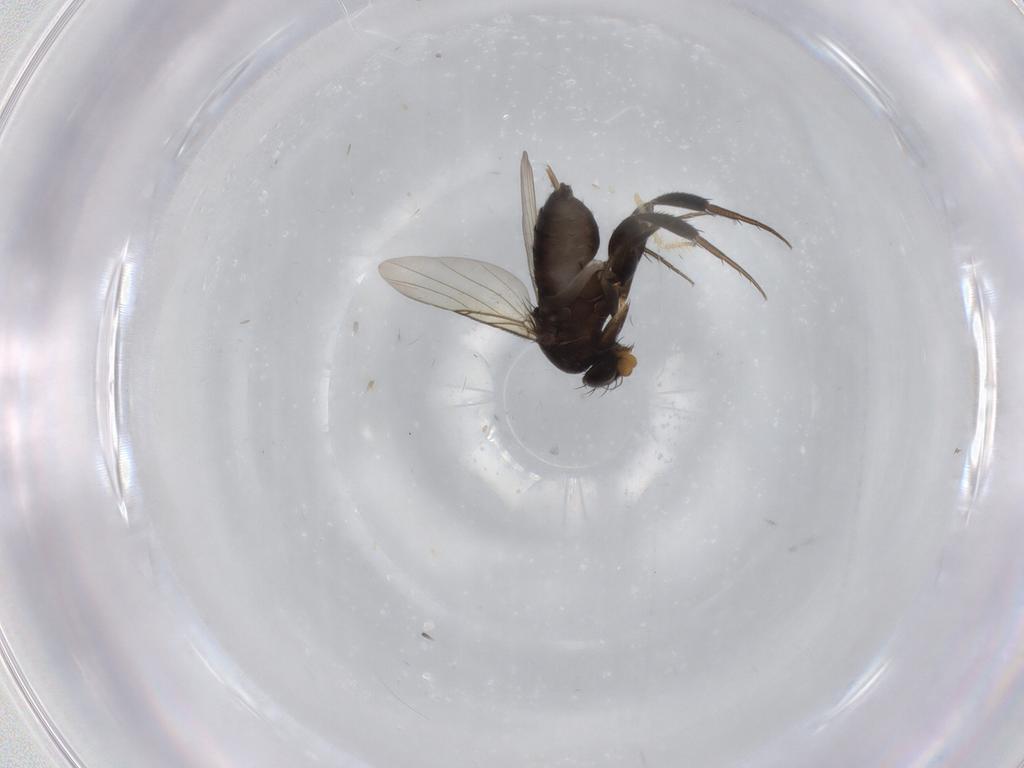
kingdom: Animalia
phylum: Arthropoda
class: Insecta
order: Diptera
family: Phoridae
